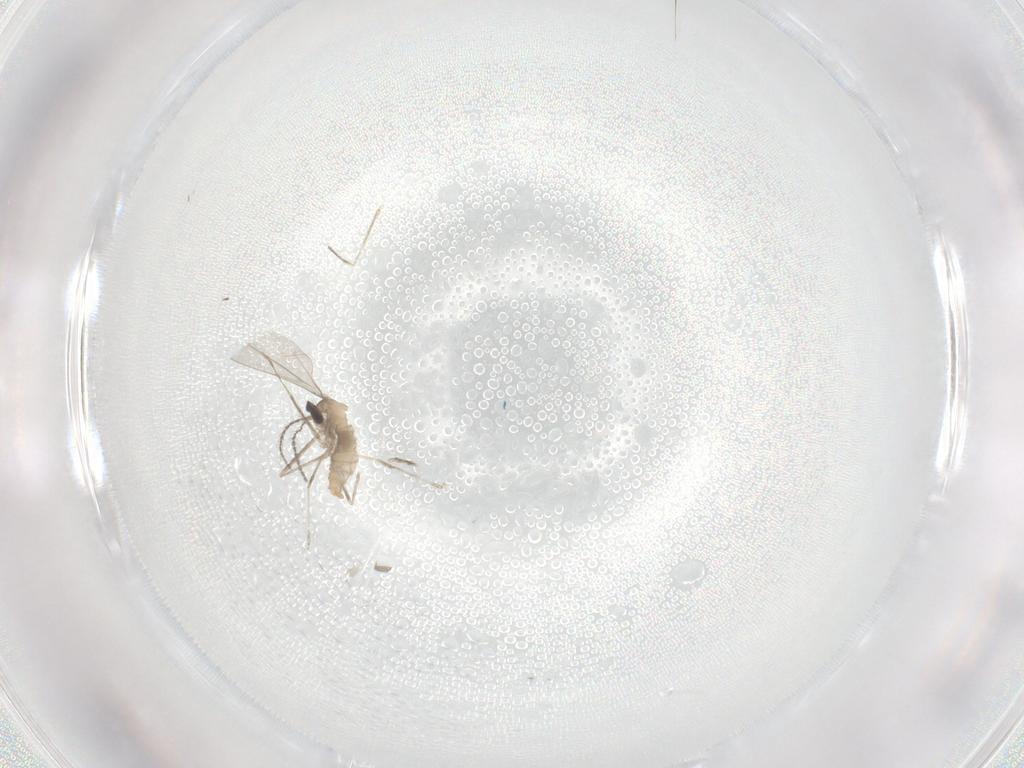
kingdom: Animalia
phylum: Arthropoda
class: Insecta
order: Diptera
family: Cecidomyiidae
